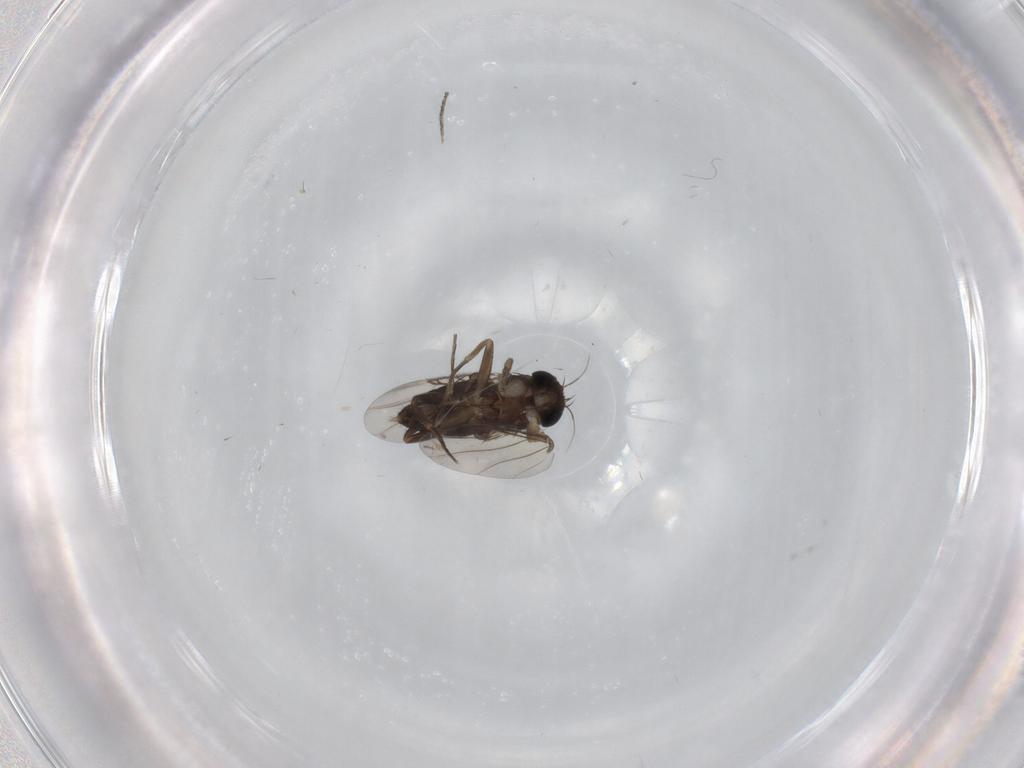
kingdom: Animalia
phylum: Arthropoda
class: Insecta
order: Diptera
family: Phoridae
